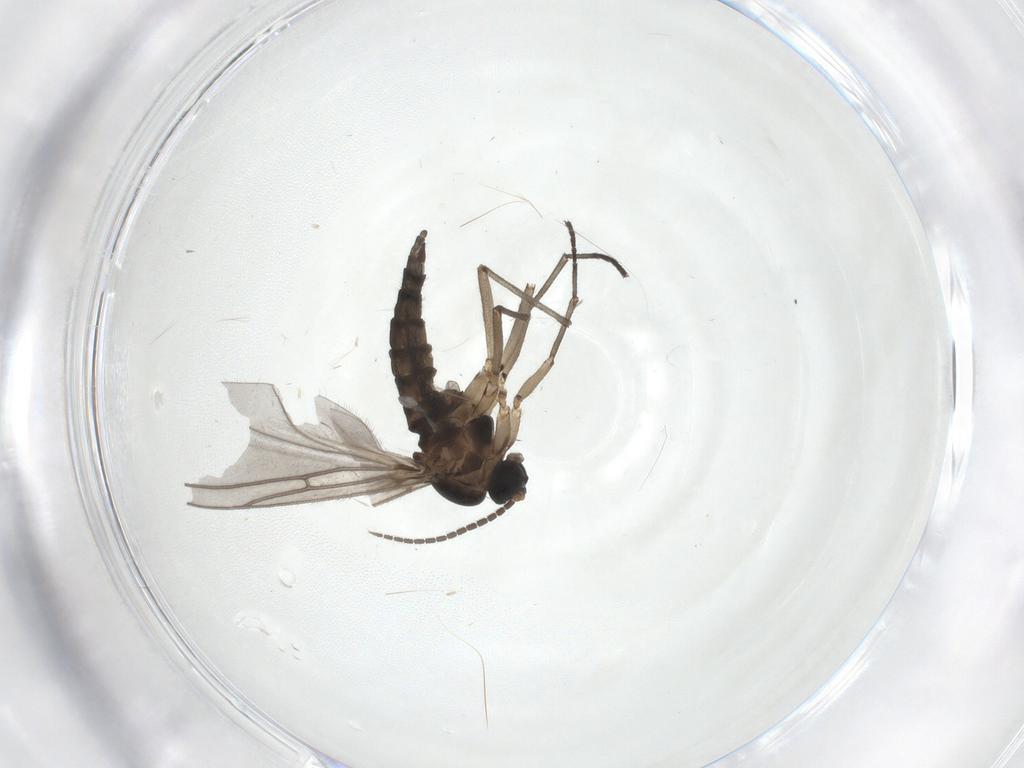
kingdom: Animalia
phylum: Arthropoda
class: Insecta
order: Diptera
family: Sciaridae
